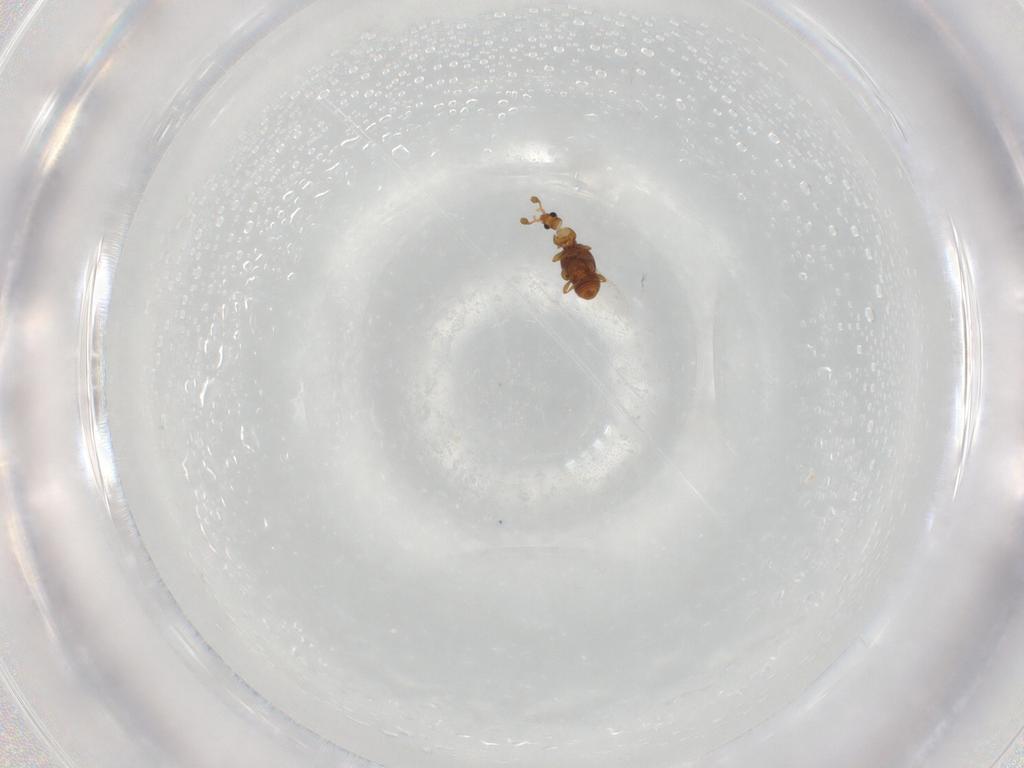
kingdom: Animalia
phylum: Arthropoda
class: Insecta
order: Coleoptera
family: Staphylinidae
